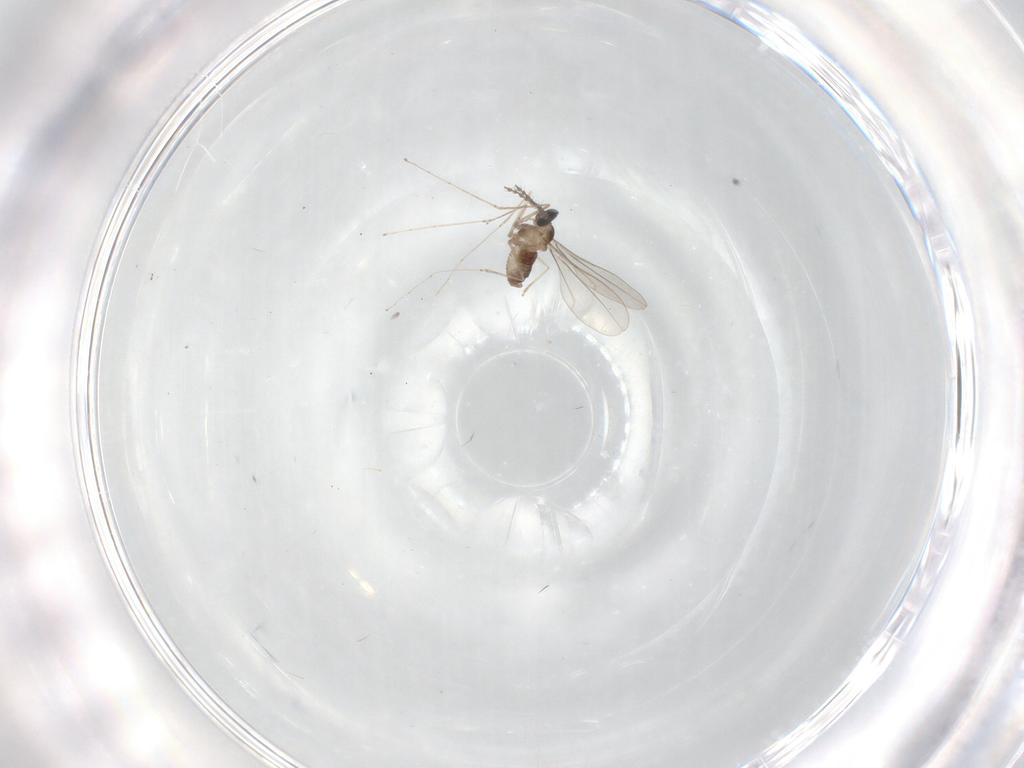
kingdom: Animalia
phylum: Arthropoda
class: Insecta
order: Diptera
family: Cecidomyiidae
